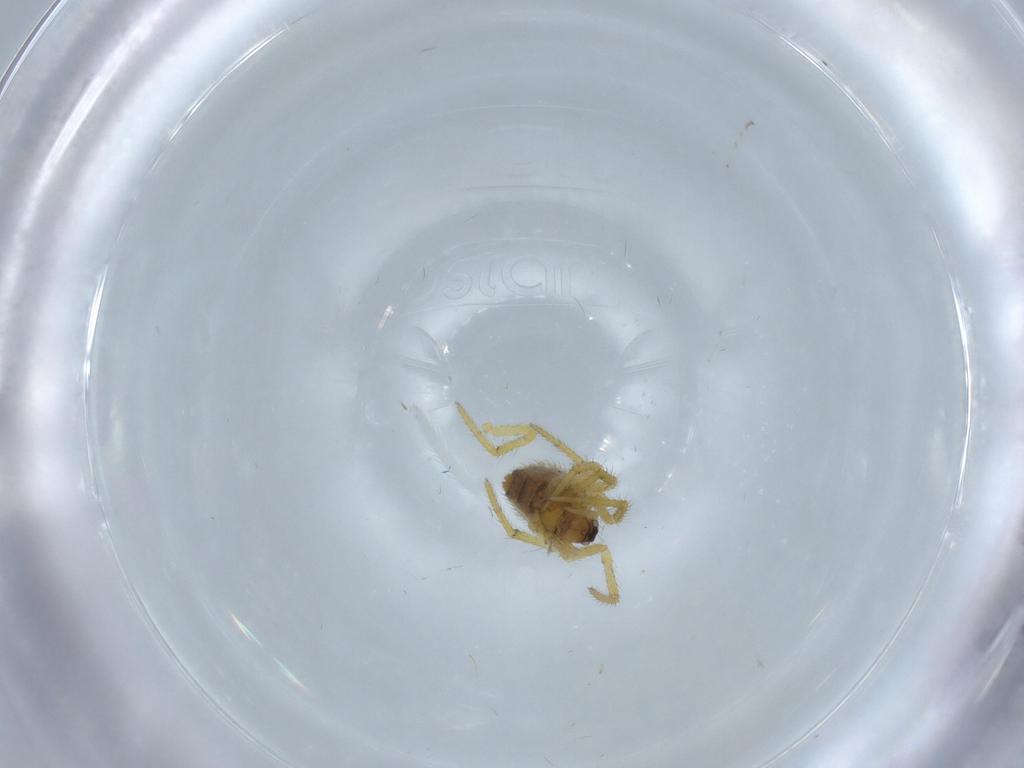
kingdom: Animalia
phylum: Arthropoda
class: Arachnida
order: Araneae
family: Theridiidae
